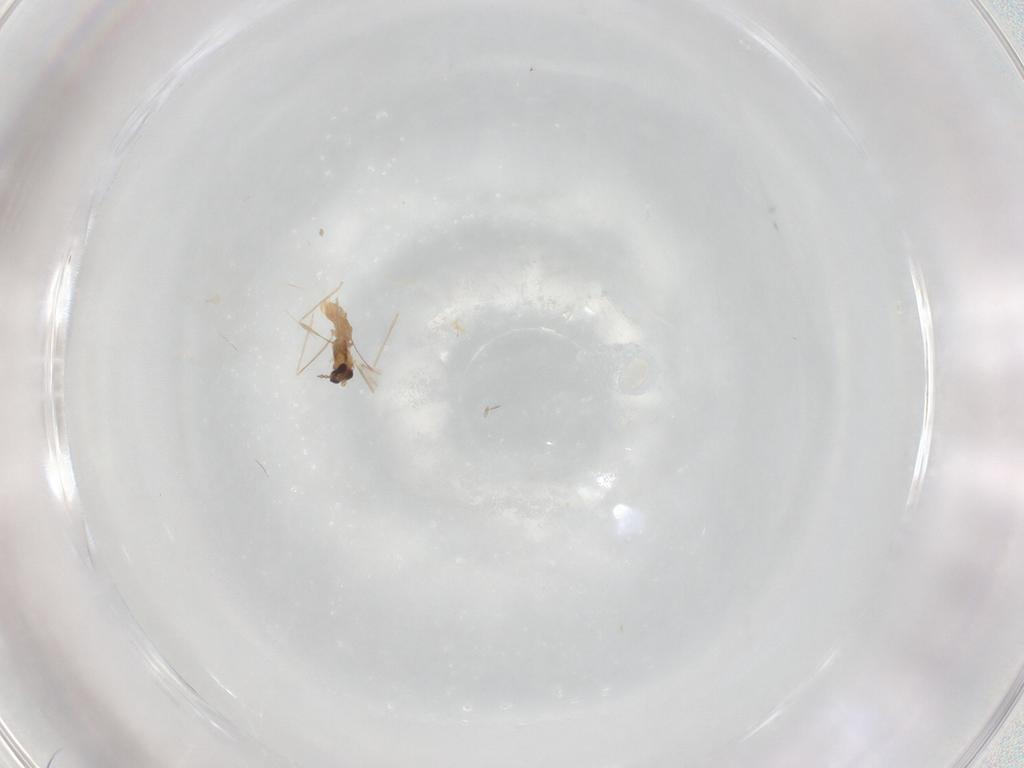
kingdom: Animalia
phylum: Arthropoda
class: Insecta
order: Diptera
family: Cecidomyiidae
